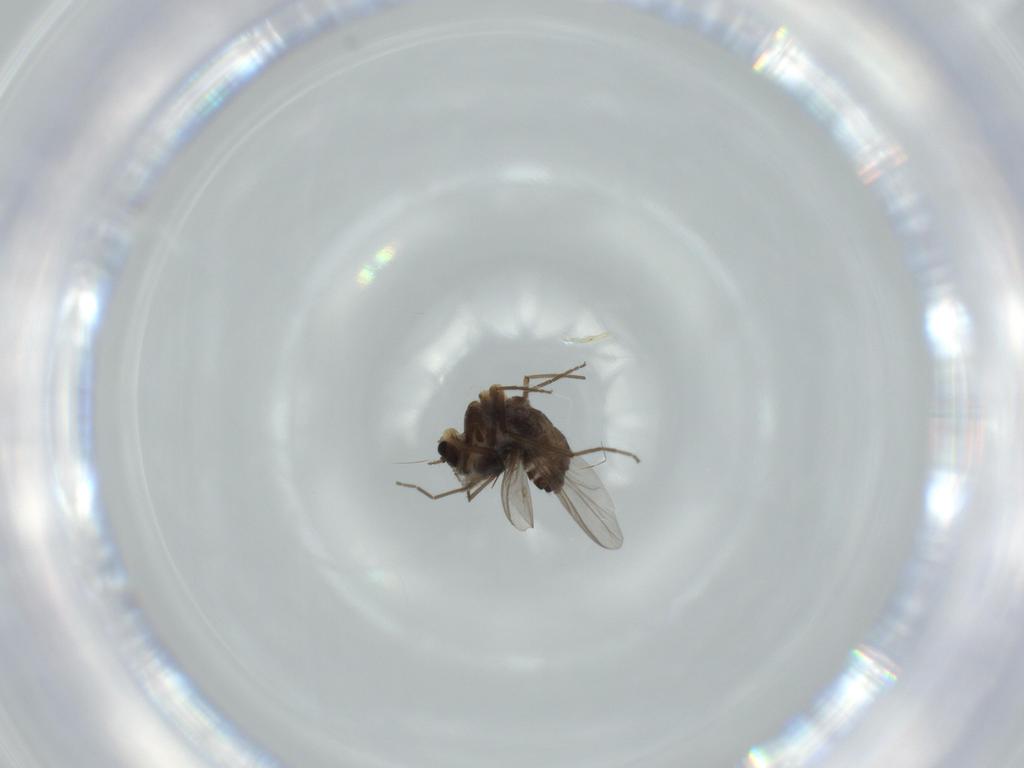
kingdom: Animalia
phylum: Arthropoda
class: Insecta
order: Diptera
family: Chironomidae
